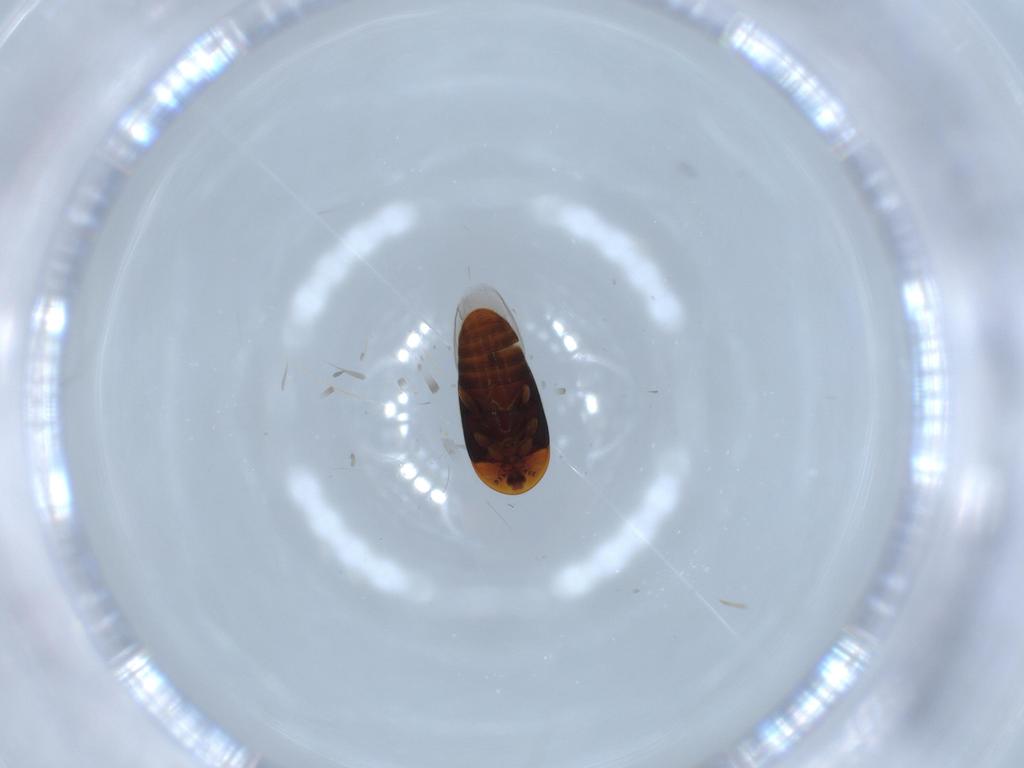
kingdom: Animalia
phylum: Arthropoda
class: Insecta
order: Coleoptera
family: Corylophidae
